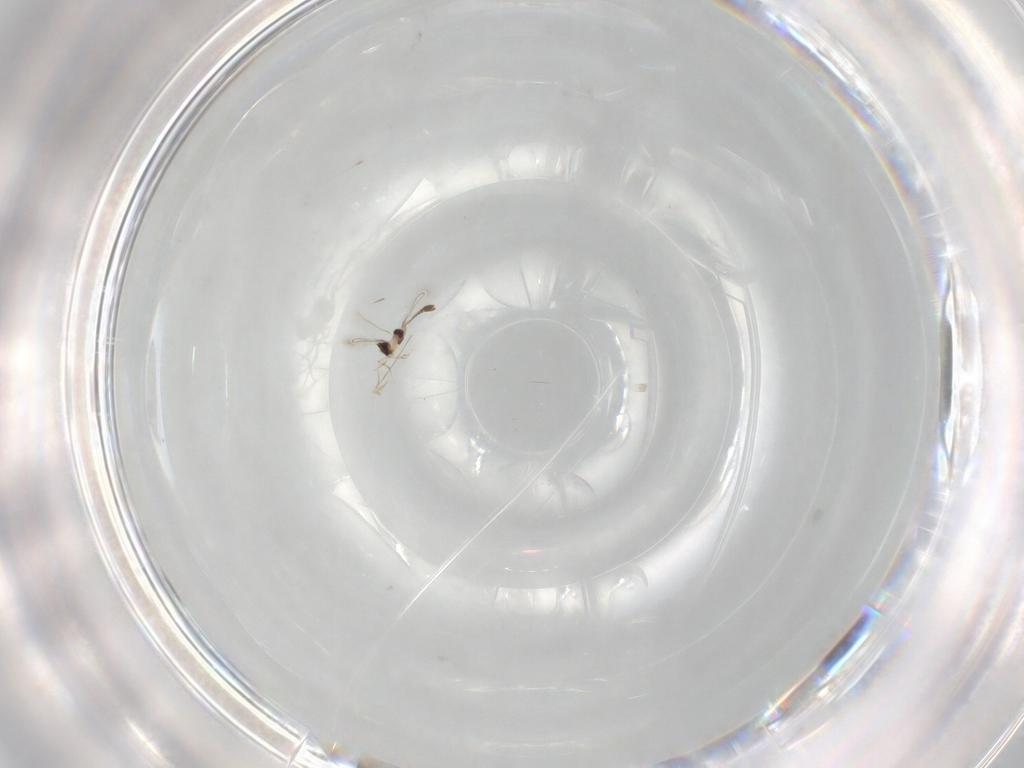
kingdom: Animalia
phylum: Arthropoda
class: Insecta
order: Hymenoptera
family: Mymaridae
